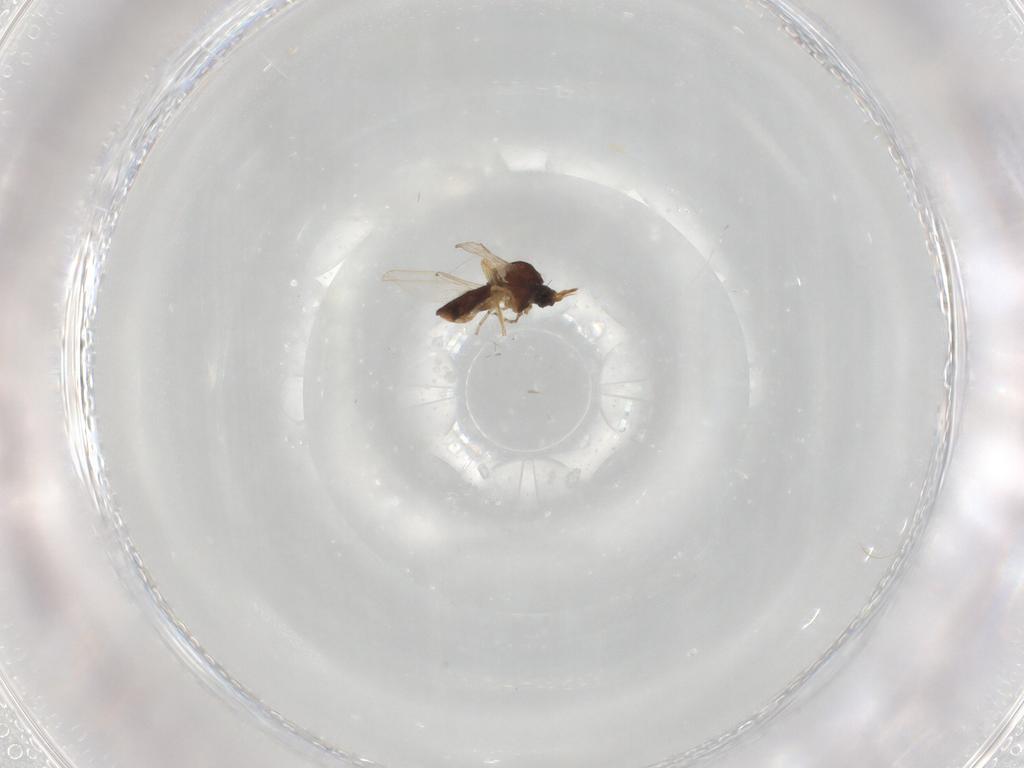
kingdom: Animalia
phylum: Arthropoda
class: Insecta
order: Diptera
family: Ceratopogonidae
